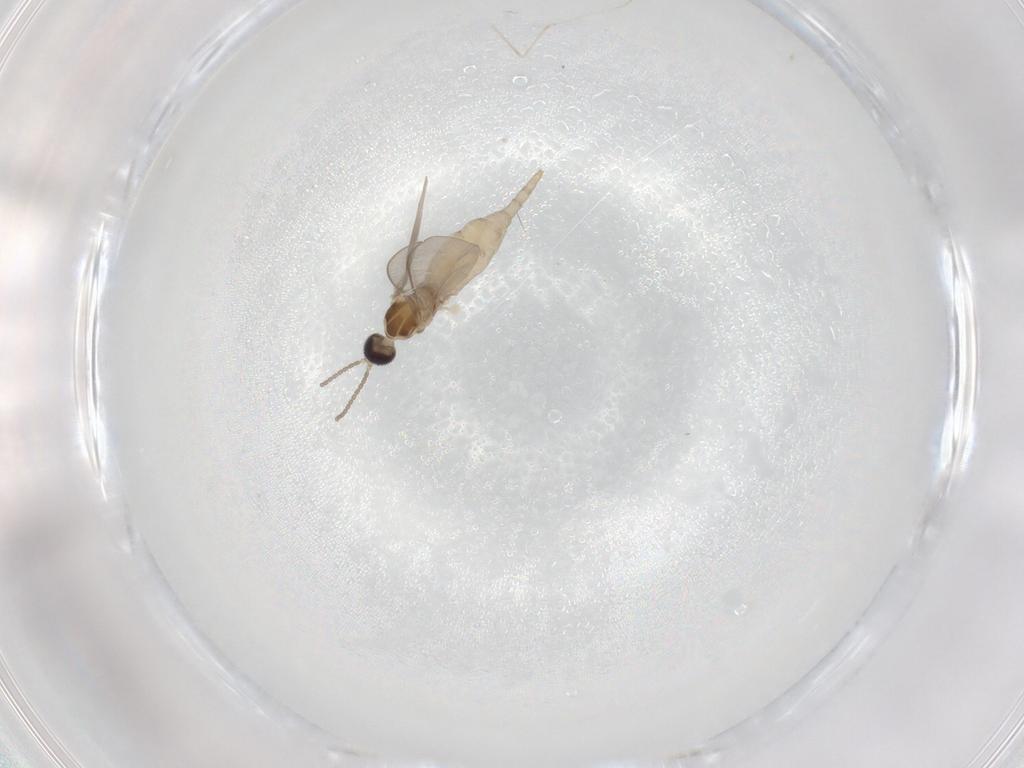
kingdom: Animalia
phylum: Arthropoda
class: Insecta
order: Diptera
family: Cecidomyiidae
